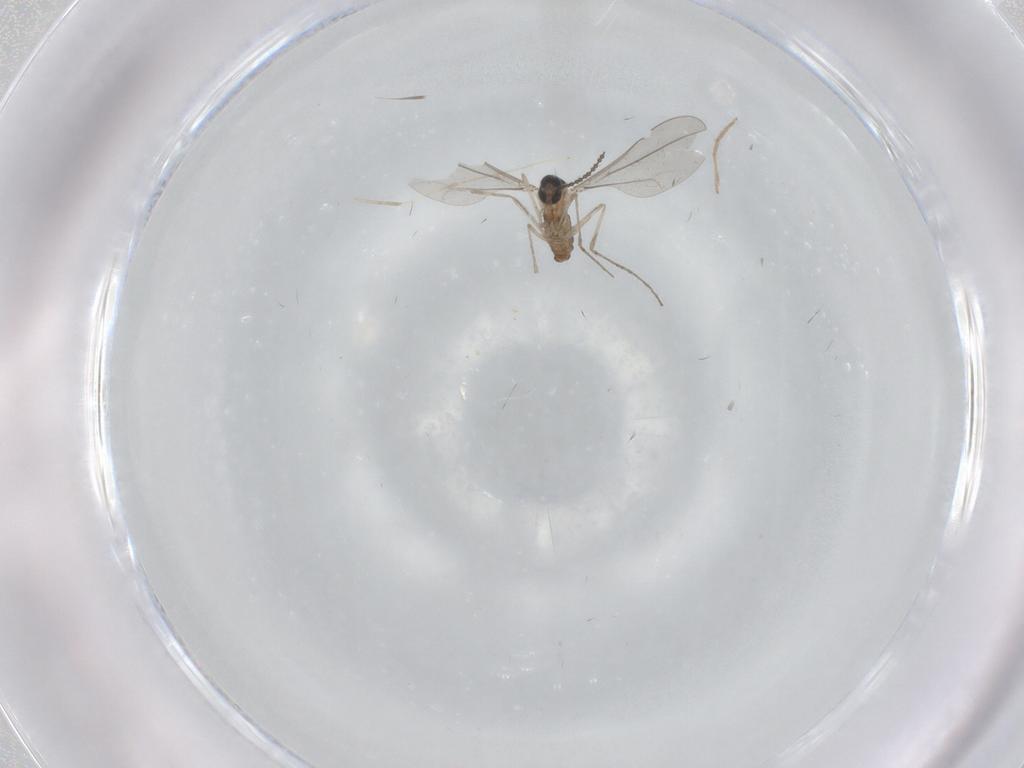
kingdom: Animalia
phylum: Arthropoda
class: Insecta
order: Diptera
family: Cecidomyiidae
